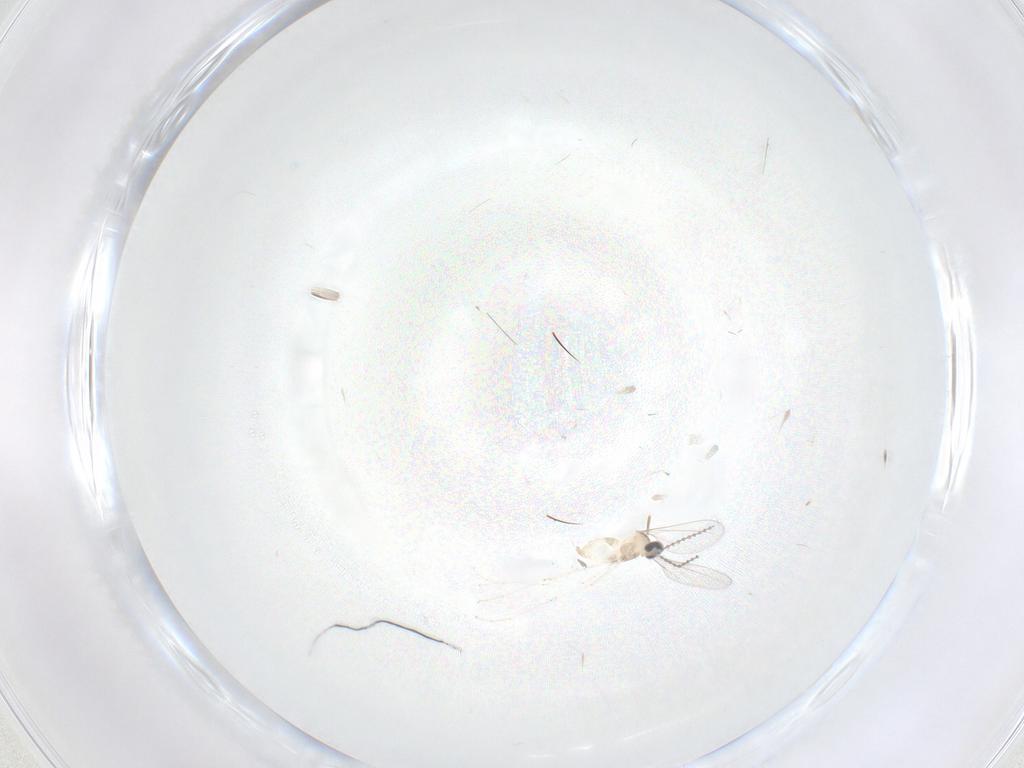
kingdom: Animalia
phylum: Arthropoda
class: Insecta
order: Diptera
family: Cecidomyiidae
